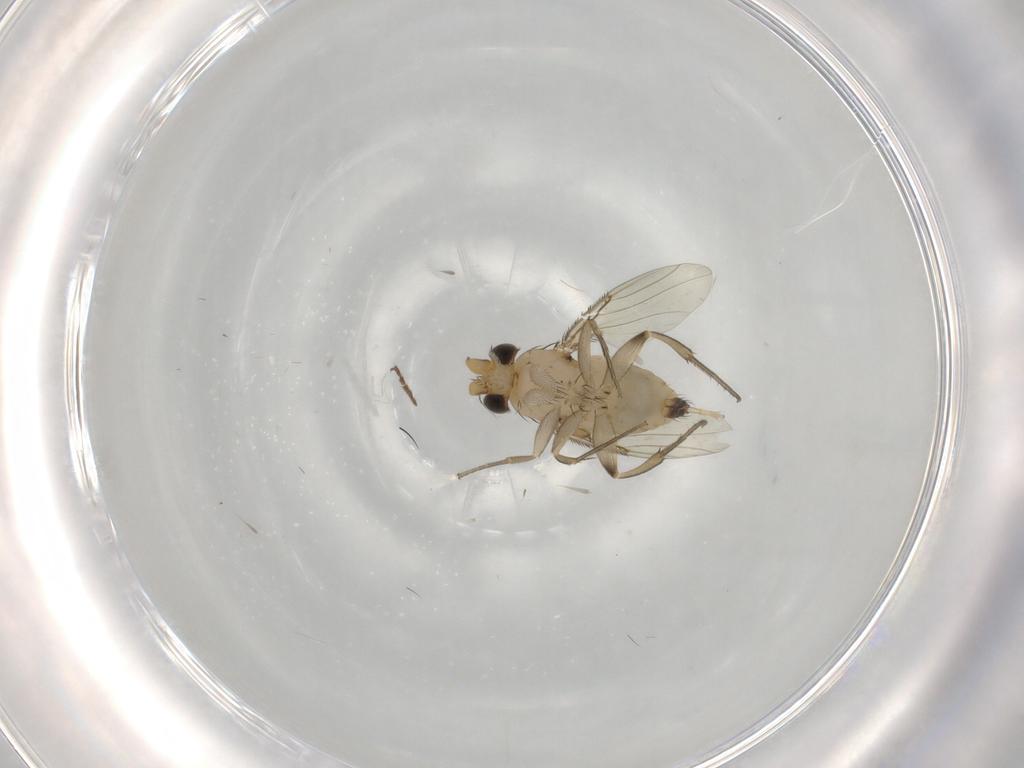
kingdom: Animalia
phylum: Arthropoda
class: Insecta
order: Diptera
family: Phoridae
